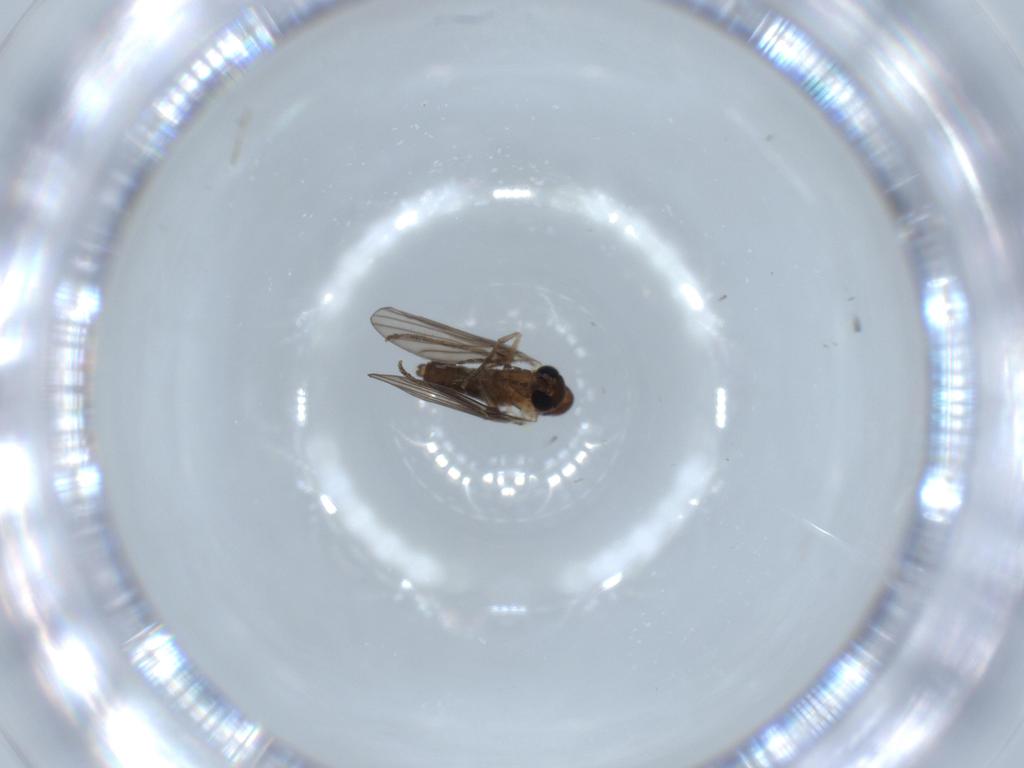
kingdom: Animalia
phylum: Arthropoda
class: Insecta
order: Diptera
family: Psychodidae
